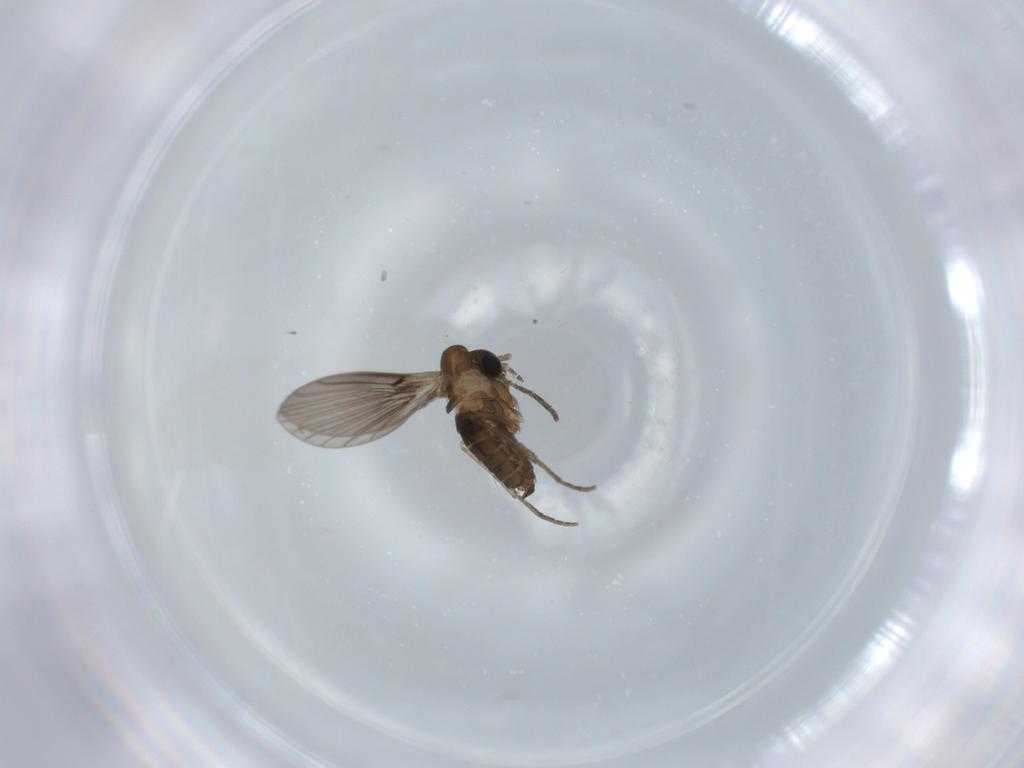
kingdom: Animalia
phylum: Arthropoda
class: Insecta
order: Diptera
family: Psychodidae
